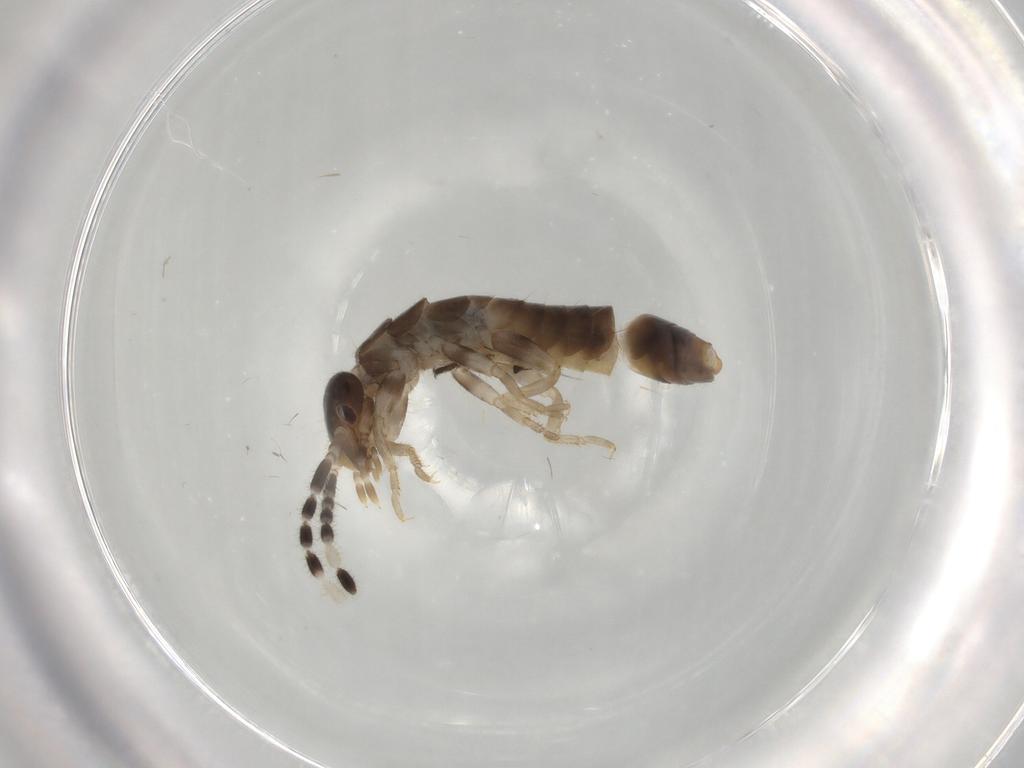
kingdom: Animalia
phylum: Arthropoda
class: Insecta
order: Dermaptera
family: Anisolabididae
